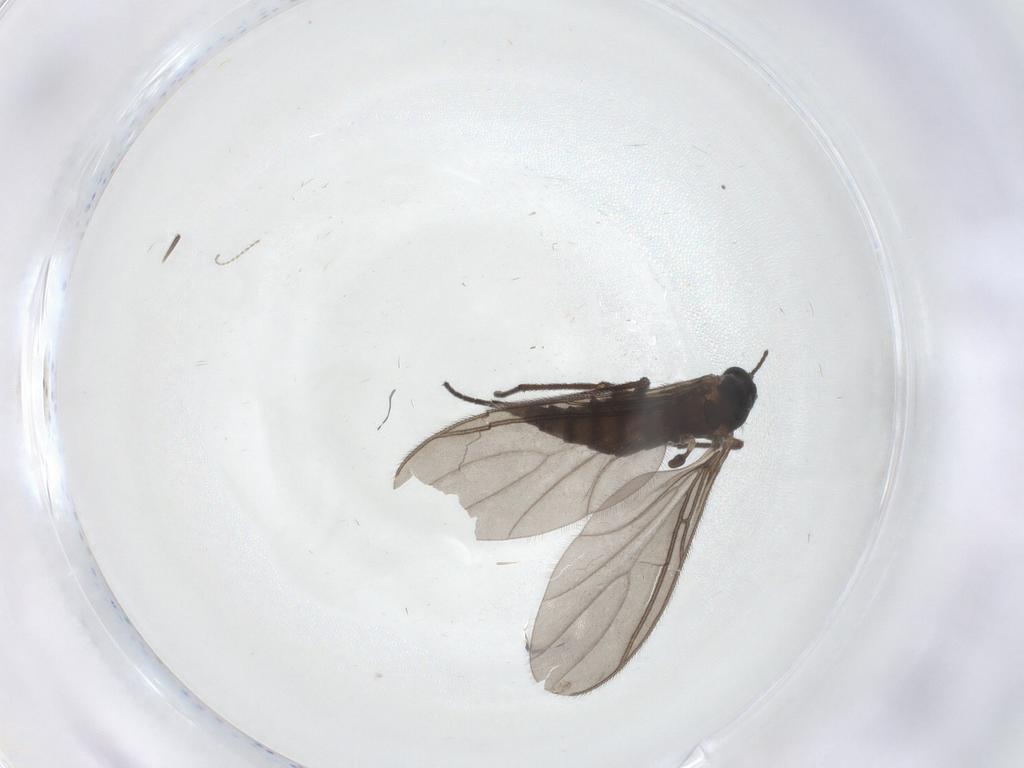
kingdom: Animalia
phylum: Arthropoda
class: Insecta
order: Diptera
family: Sciaridae
